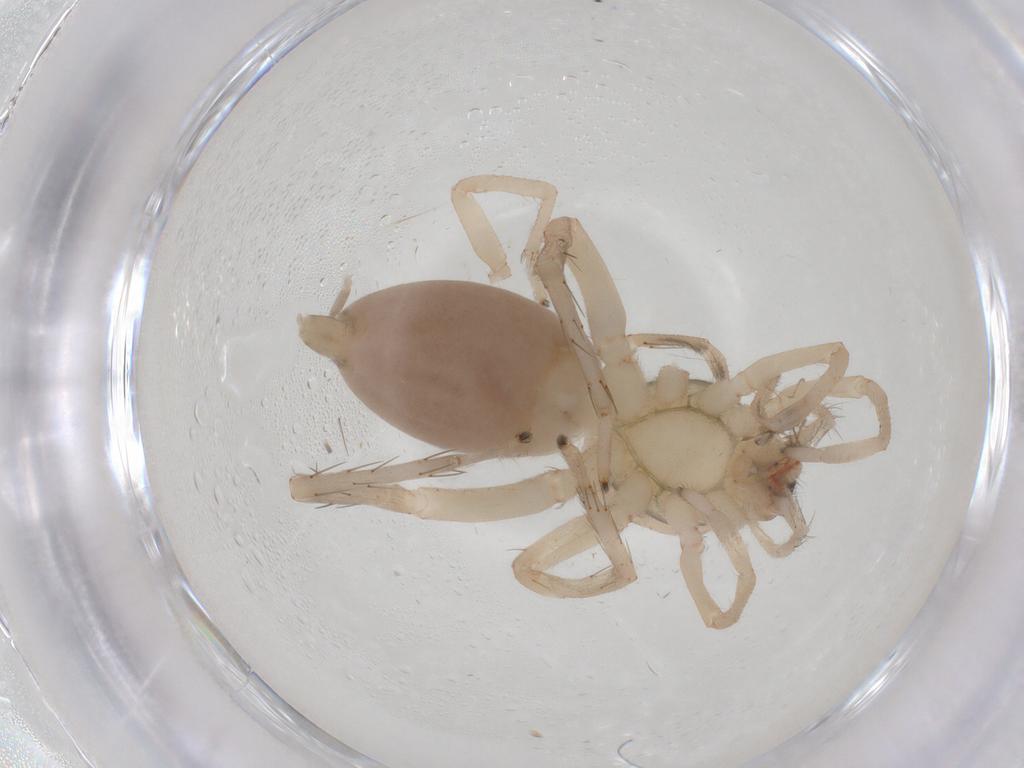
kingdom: Animalia
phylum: Arthropoda
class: Arachnida
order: Araneae
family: Clubionidae
